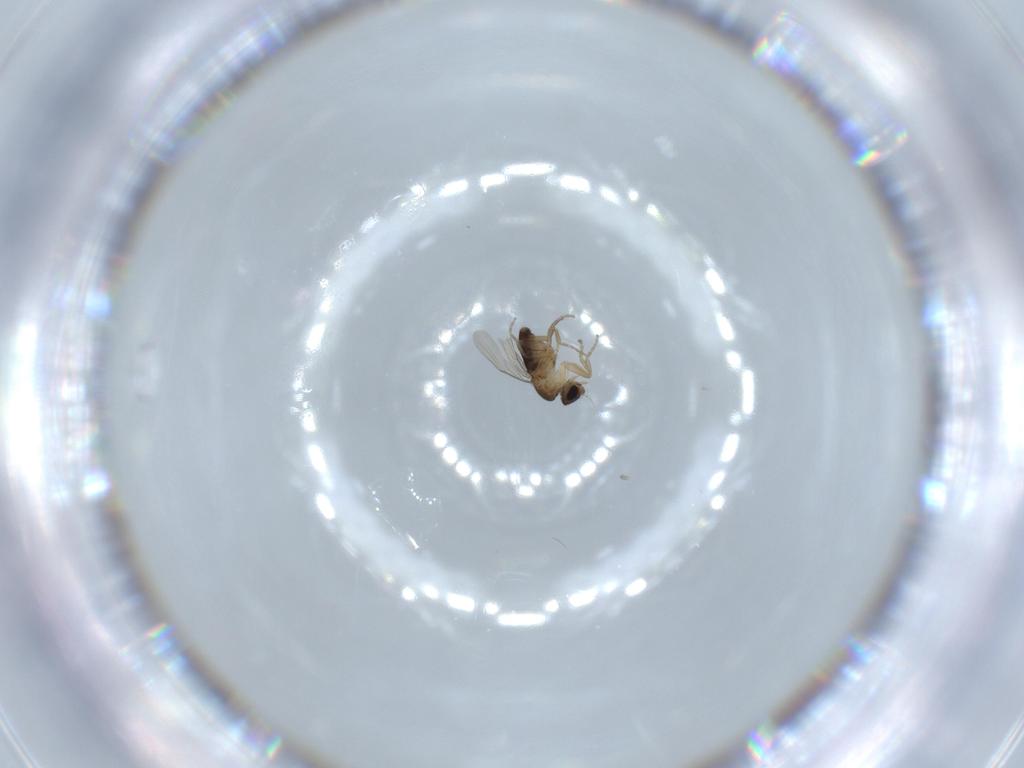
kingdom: Animalia
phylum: Arthropoda
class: Insecta
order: Diptera
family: Phoridae
